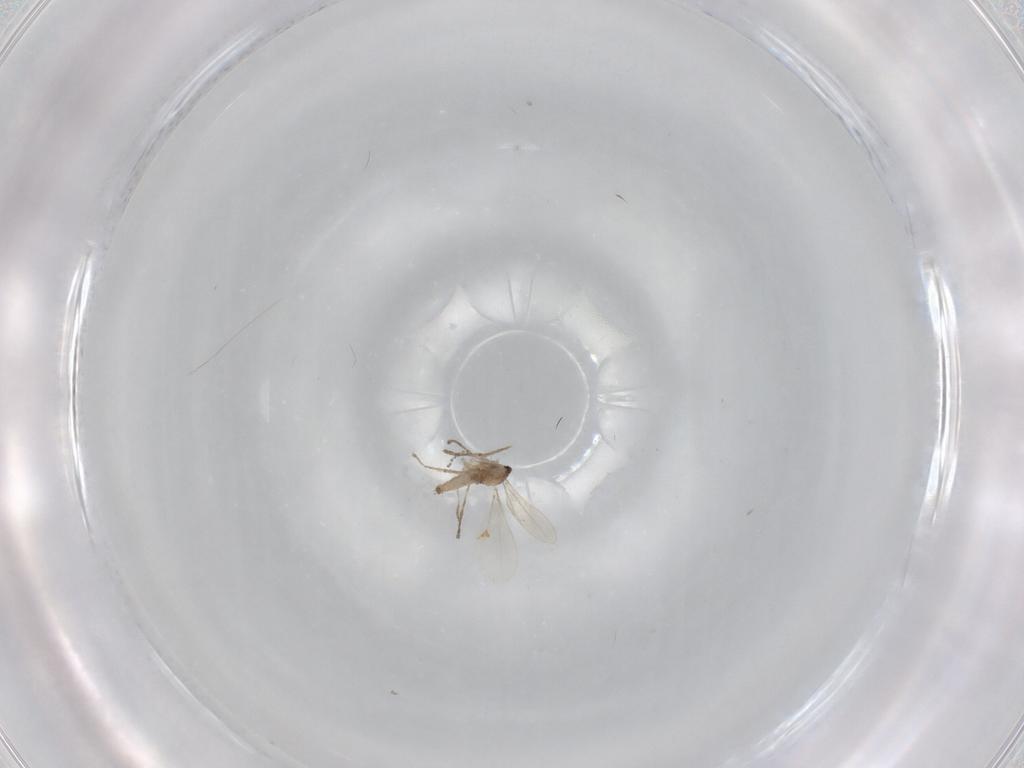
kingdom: Animalia
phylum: Arthropoda
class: Insecta
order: Diptera
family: Cecidomyiidae
